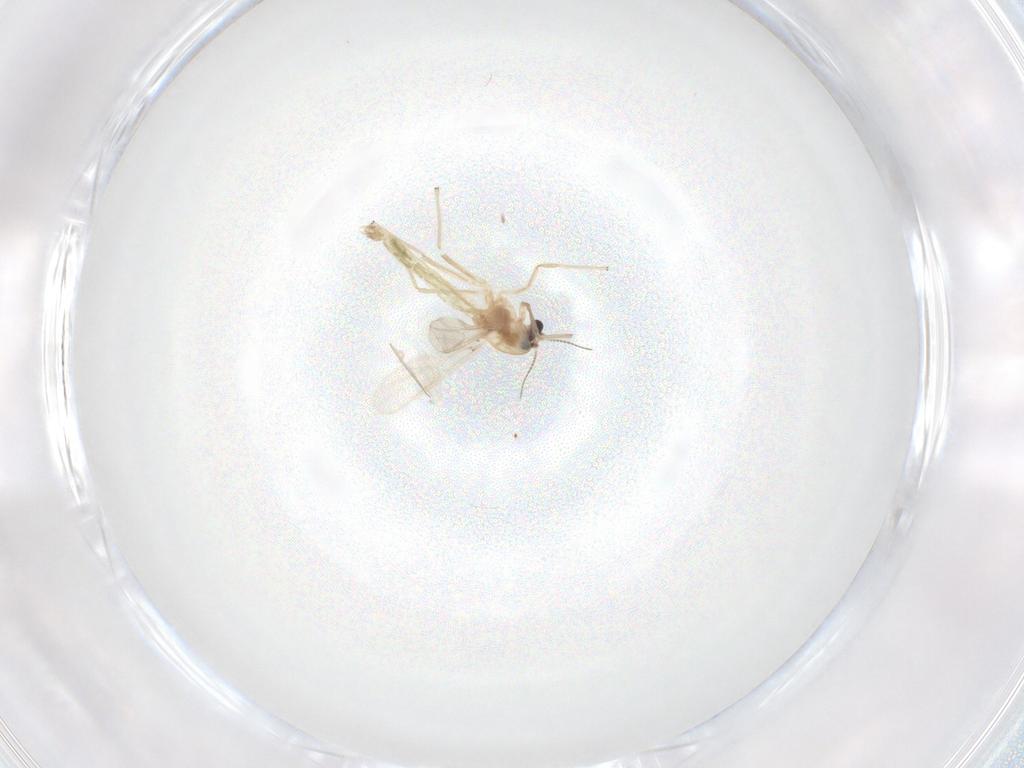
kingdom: Animalia
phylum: Arthropoda
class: Insecta
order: Diptera
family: Chironomidae
